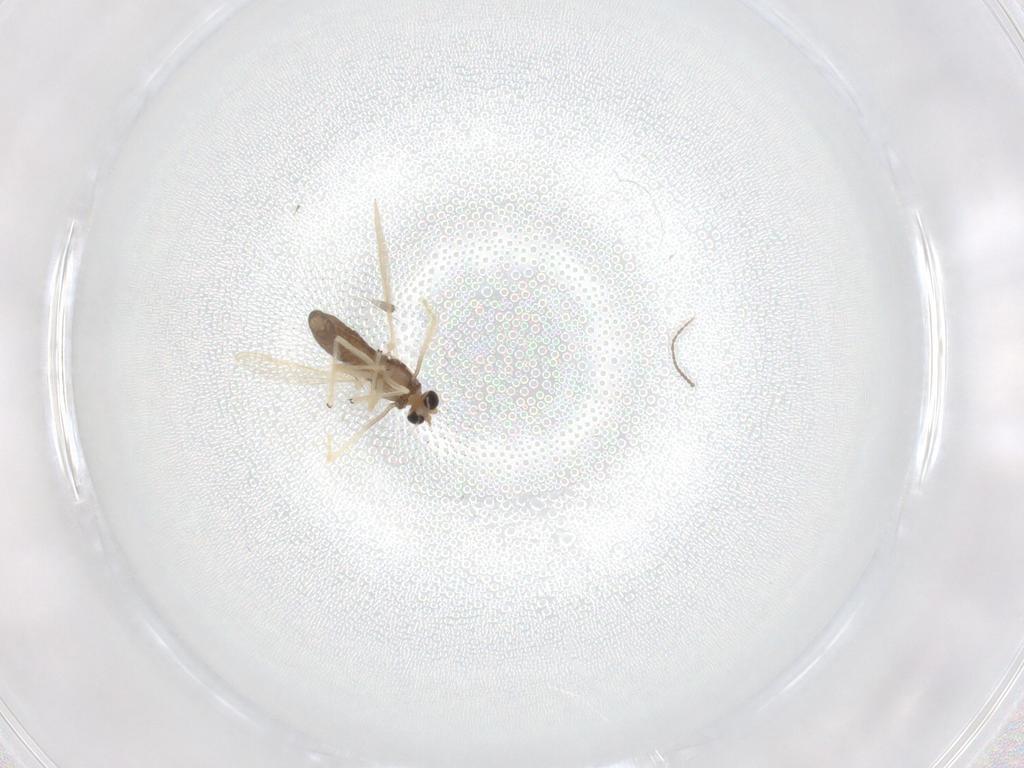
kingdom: Animalia
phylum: Arthropoda
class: Insecta
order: Diptera
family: Chironomidae
